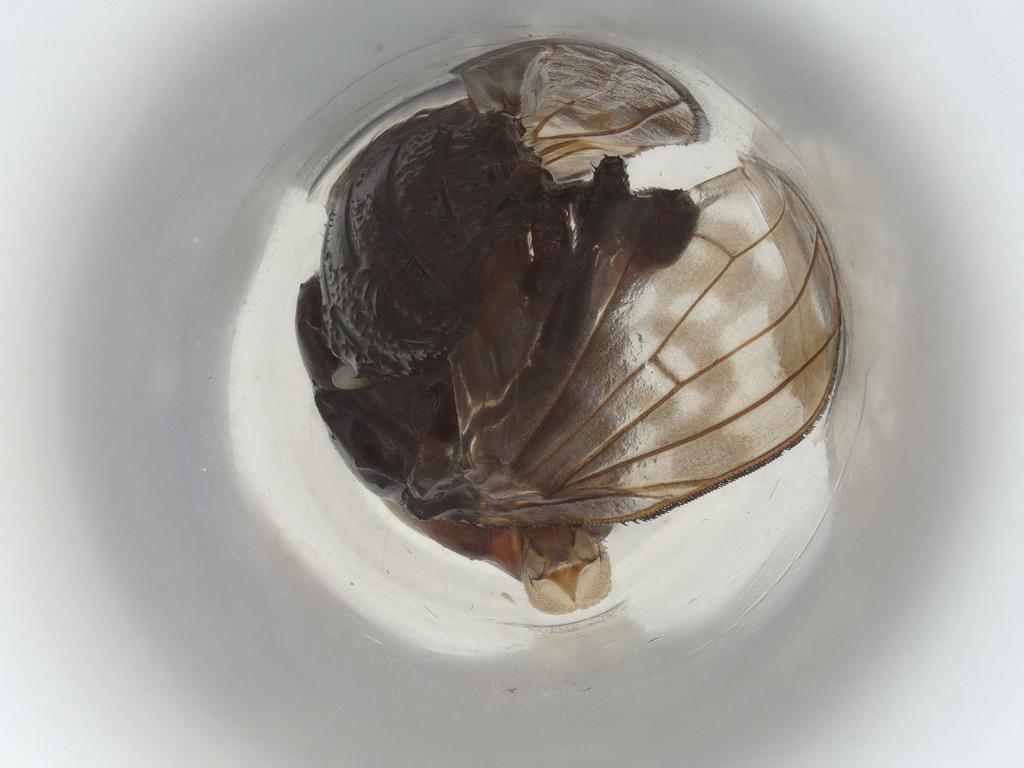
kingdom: Animalia
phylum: Arthropoda
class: Insecta
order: Hymenoptera
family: Vespidae
